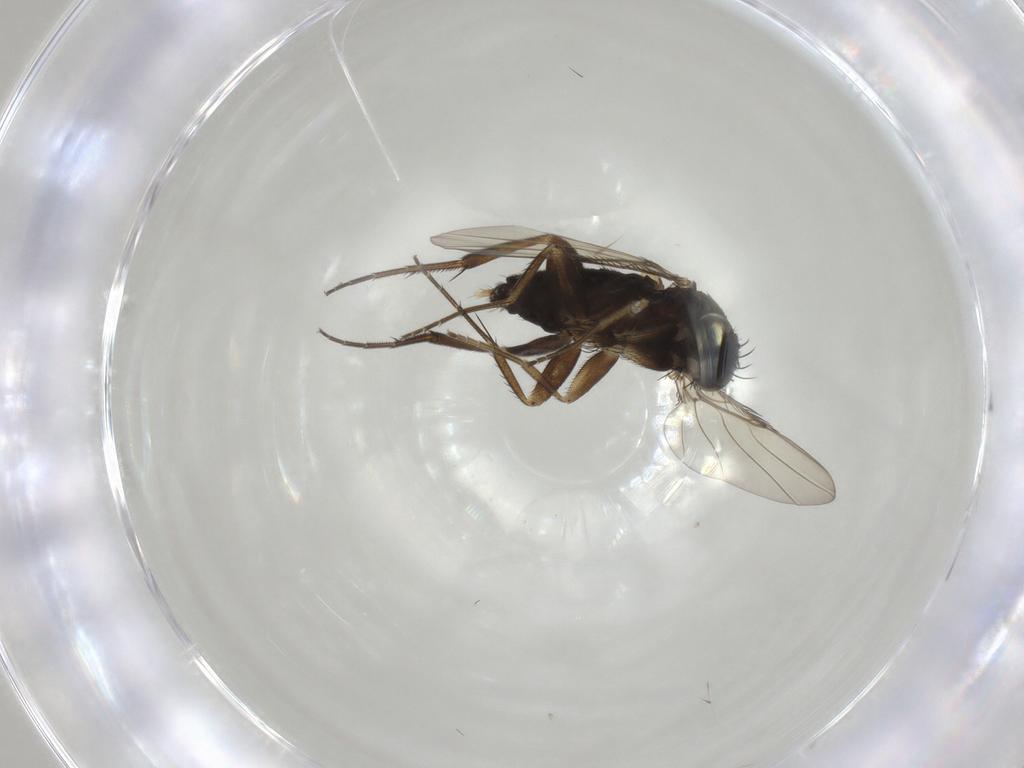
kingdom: Animalia
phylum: Arthropoda
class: Insecta
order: Diptera
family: Phoridae
